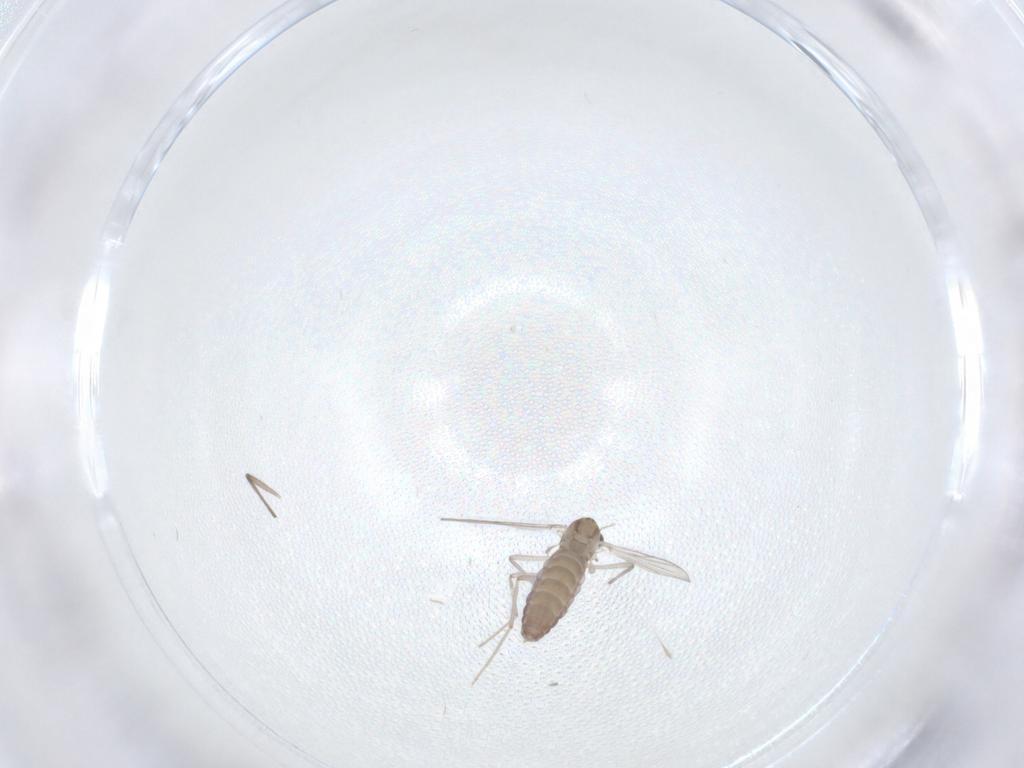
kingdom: Animalia
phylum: Arthropoda
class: Insecta
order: Diptera
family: Chironomidae
